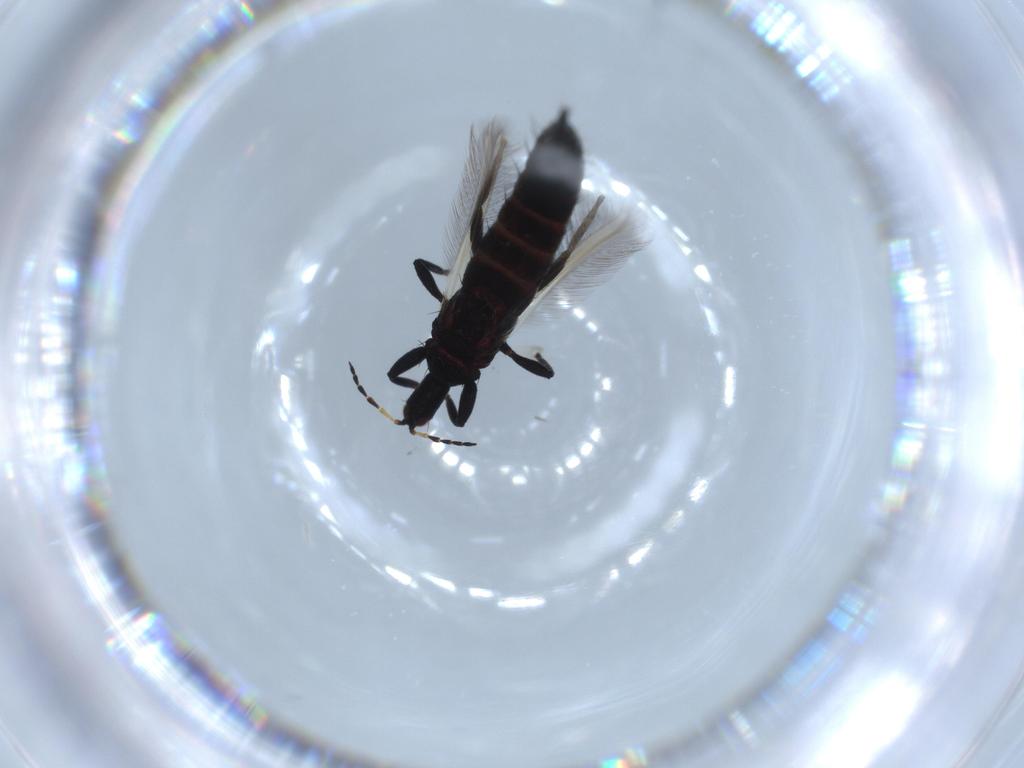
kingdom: Animalia
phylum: Arthropoda
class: Insecta
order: Thysanoptera
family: Phlaeothripidae
